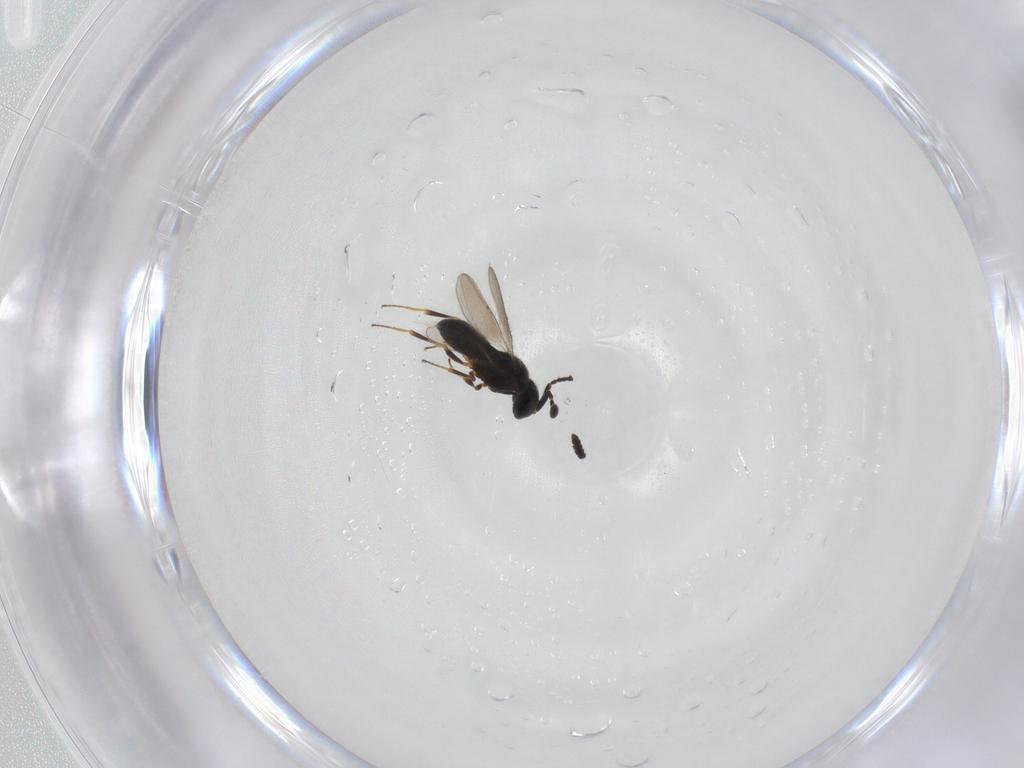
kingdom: Animalia
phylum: Arthropoda
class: Insecta
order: Hymenoptera
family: Scelionidae
